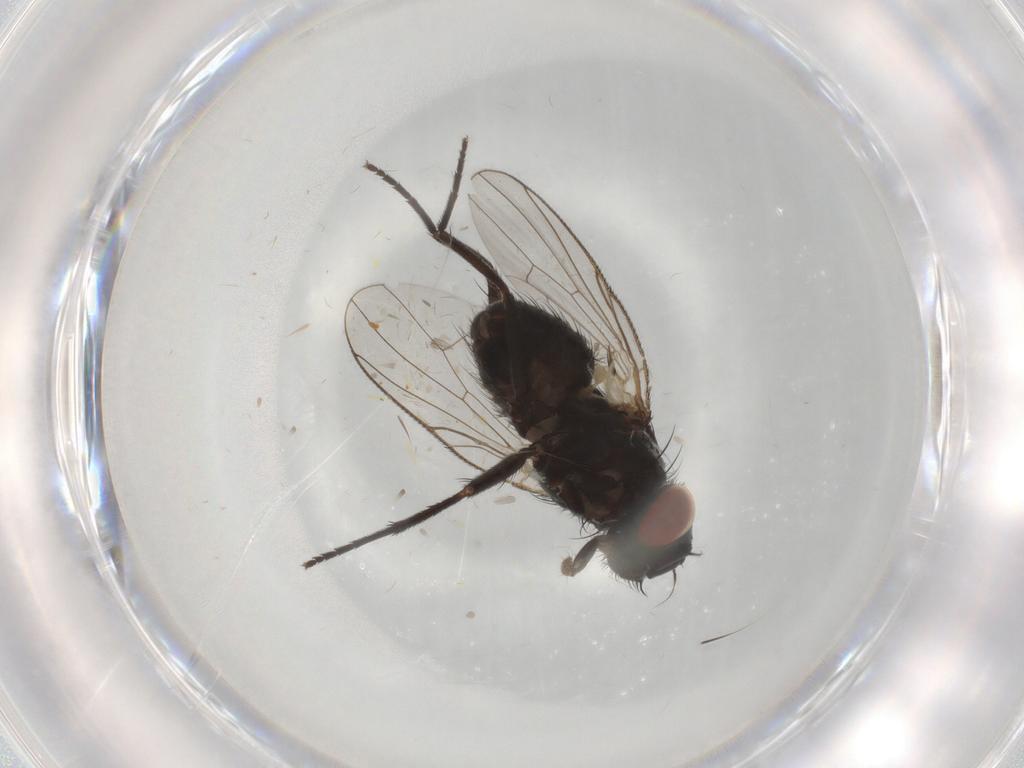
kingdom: Animalia
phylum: Arthropoda
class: Insecta
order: Diptera
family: Muscidae
